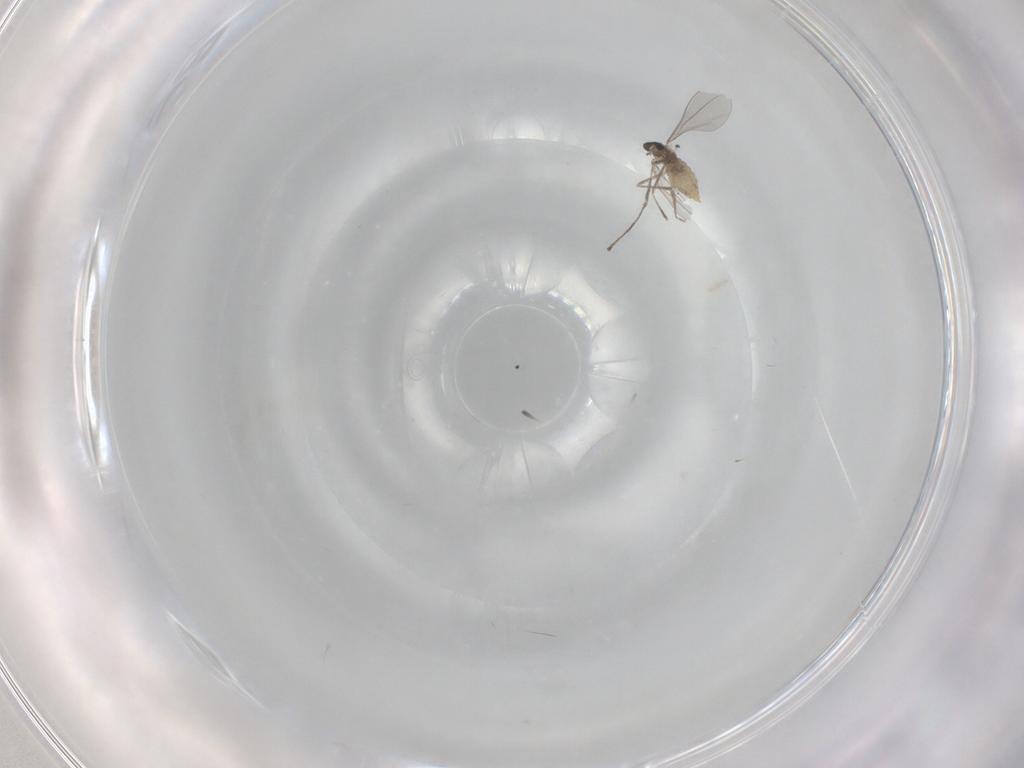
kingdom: Animalia
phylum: Arthropoda
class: Insecta
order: Diptera
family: Cecidomyiidae
